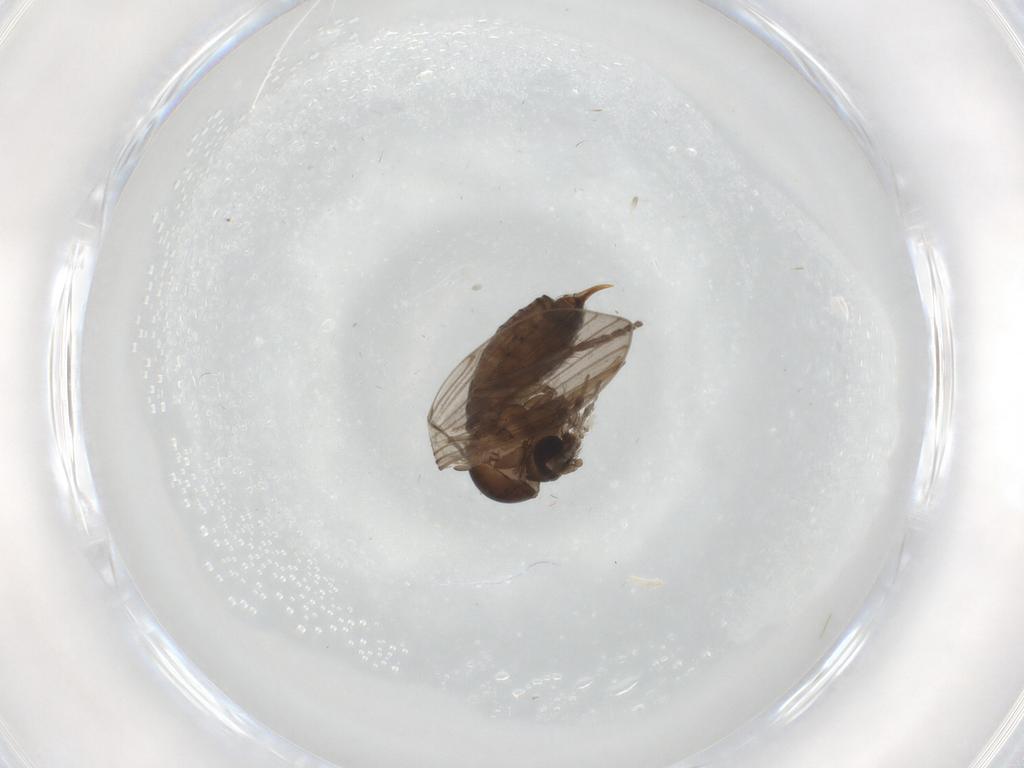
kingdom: Animalia
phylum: Arthropoda
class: Insecta
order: Diptera
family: Psychodidae
